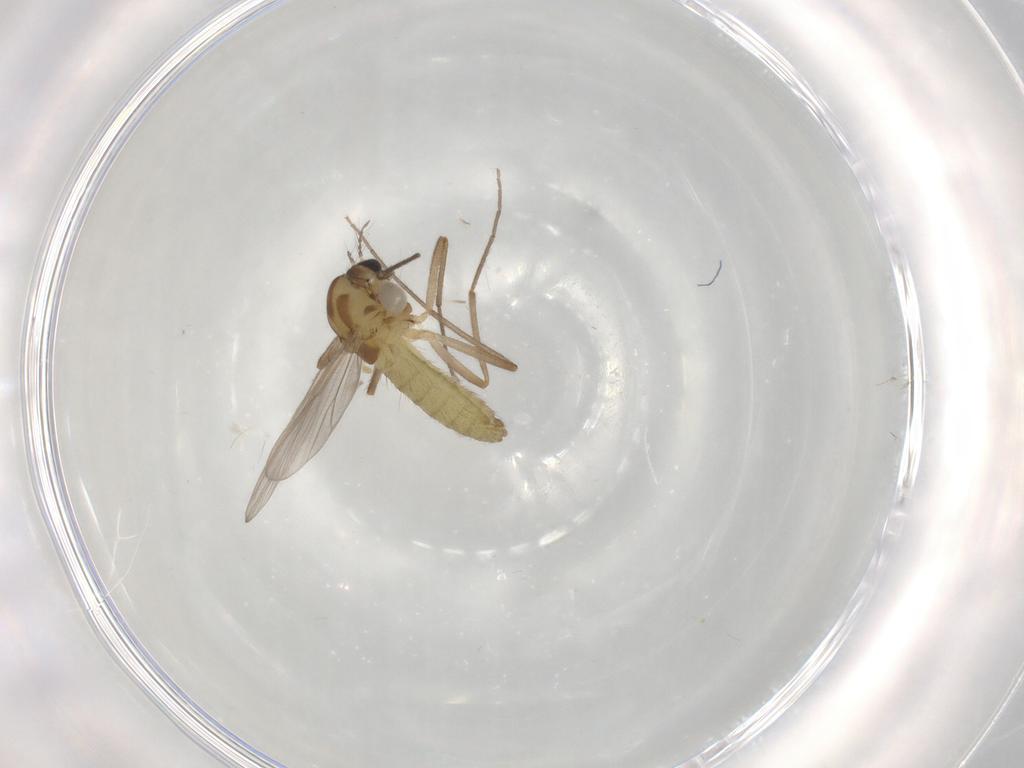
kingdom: Animalia
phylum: Arthropoda
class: Insecta
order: Diptera
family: Chironomidae
